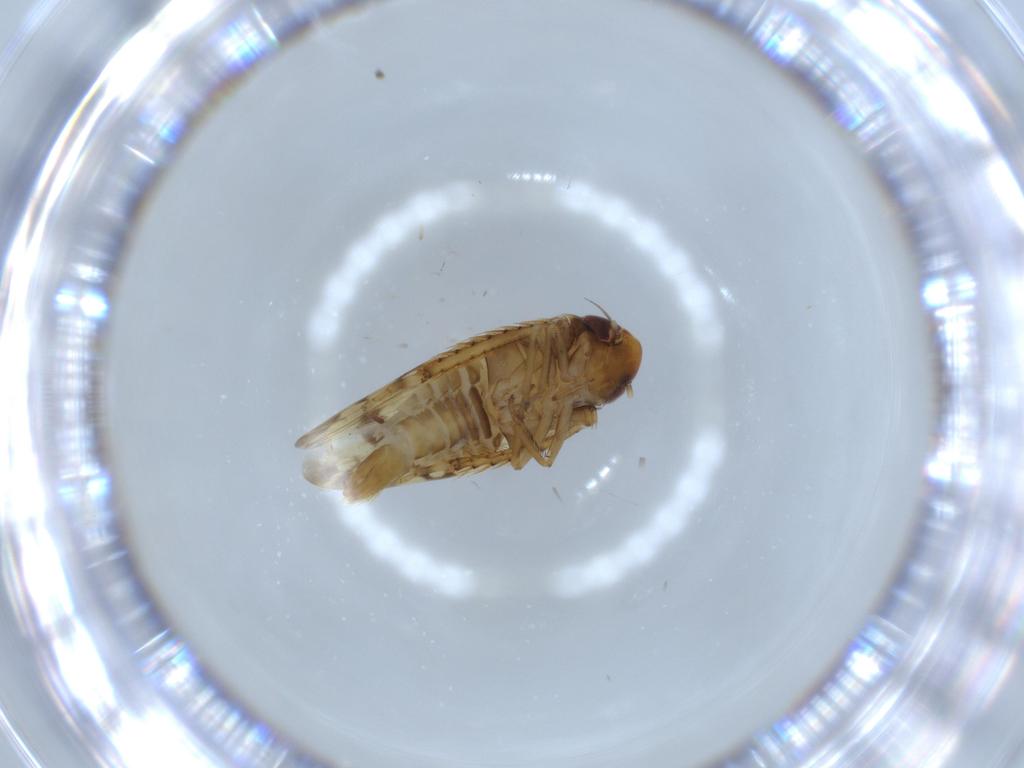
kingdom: Animalia
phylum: Arthropoda
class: Insecta
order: Hemiptera
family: Cicadellidae
